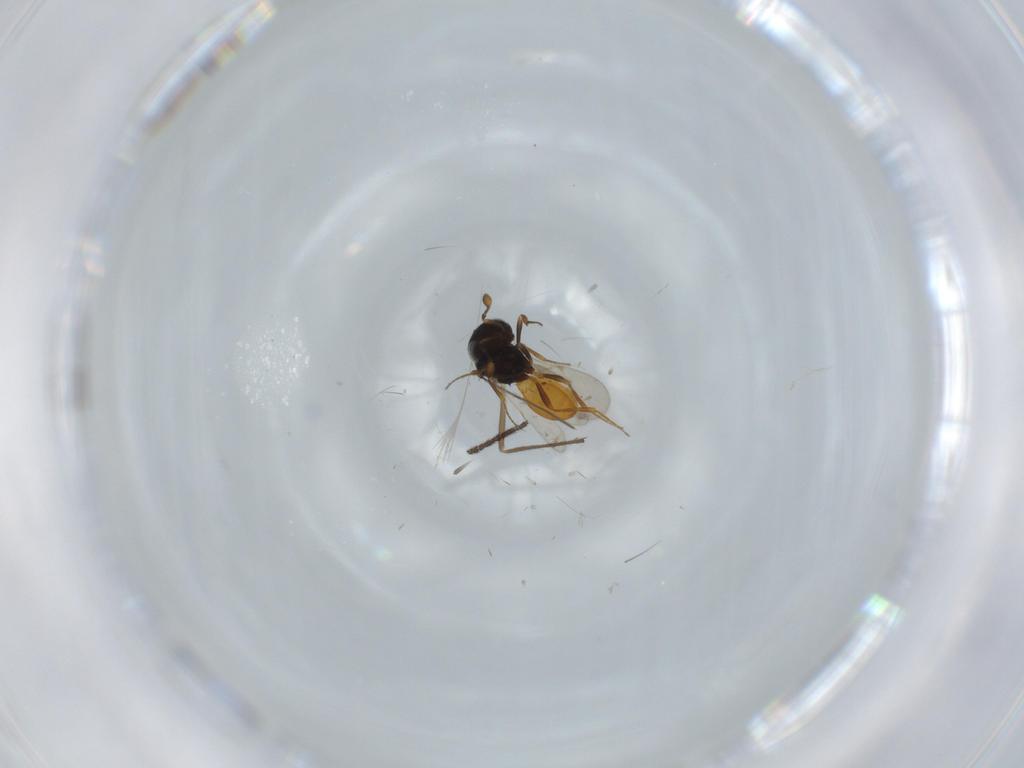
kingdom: Animalia
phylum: Arthropoda
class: Insecta
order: Hymenoptera
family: Scelionidae
